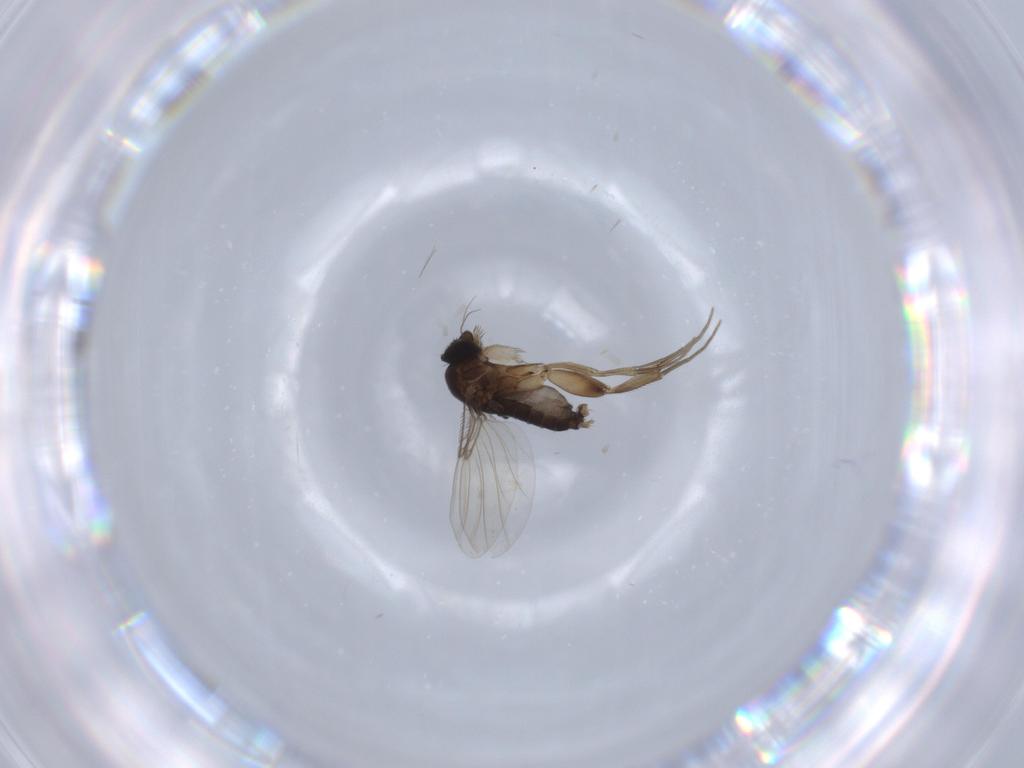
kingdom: Animalia
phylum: Arthropoda
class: Insecta
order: Diptera
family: Phoridae
